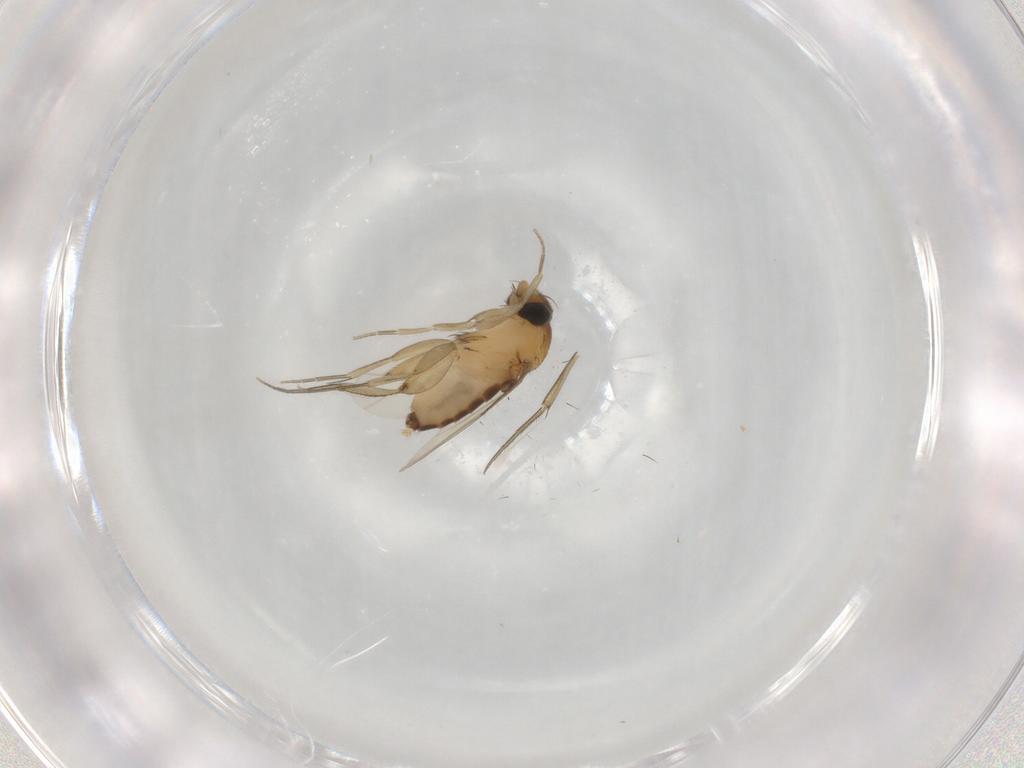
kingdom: Animalia
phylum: Arthropoda
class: Insecta
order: Diptera
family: Phoridae
